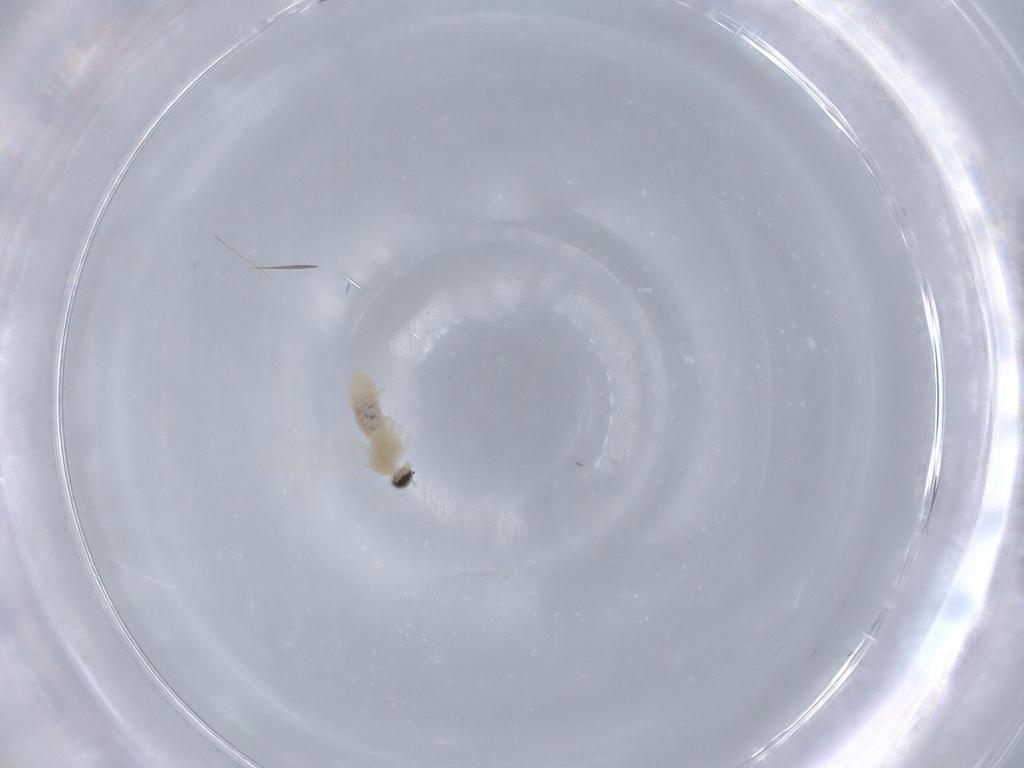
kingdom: Animalia
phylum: Arthropoda
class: Insecta
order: Diptera
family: Cecidomyiidae
